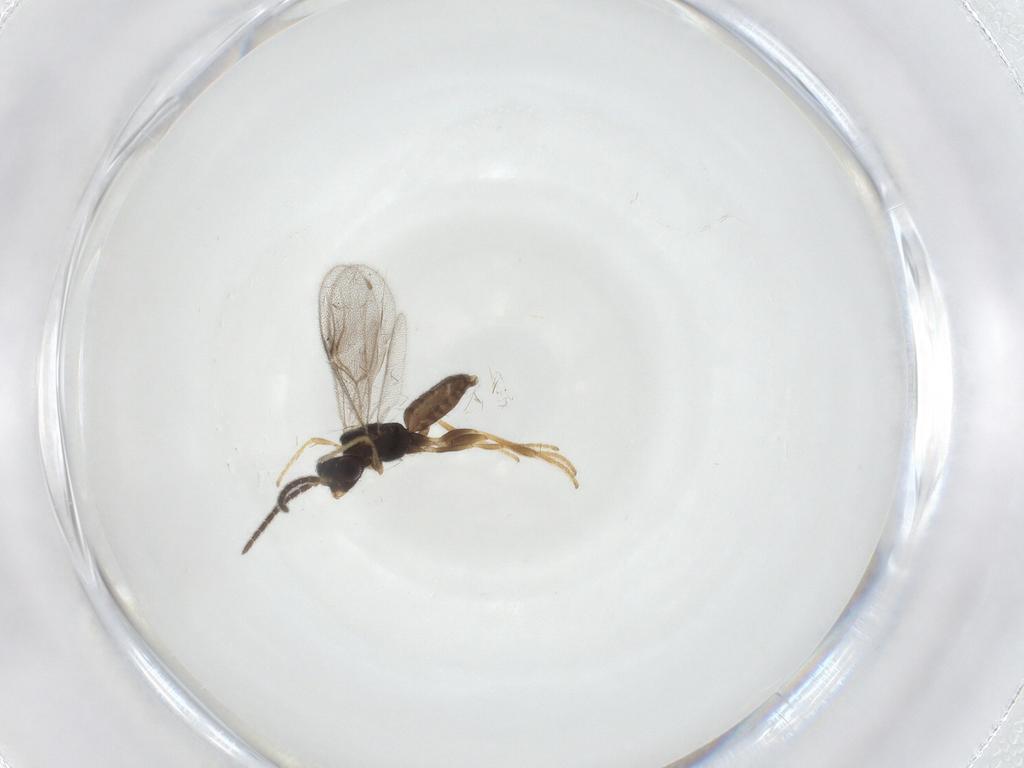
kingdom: Animalia
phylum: Arthropoda
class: Insecta
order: Hymenoptera
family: Dryinidae
